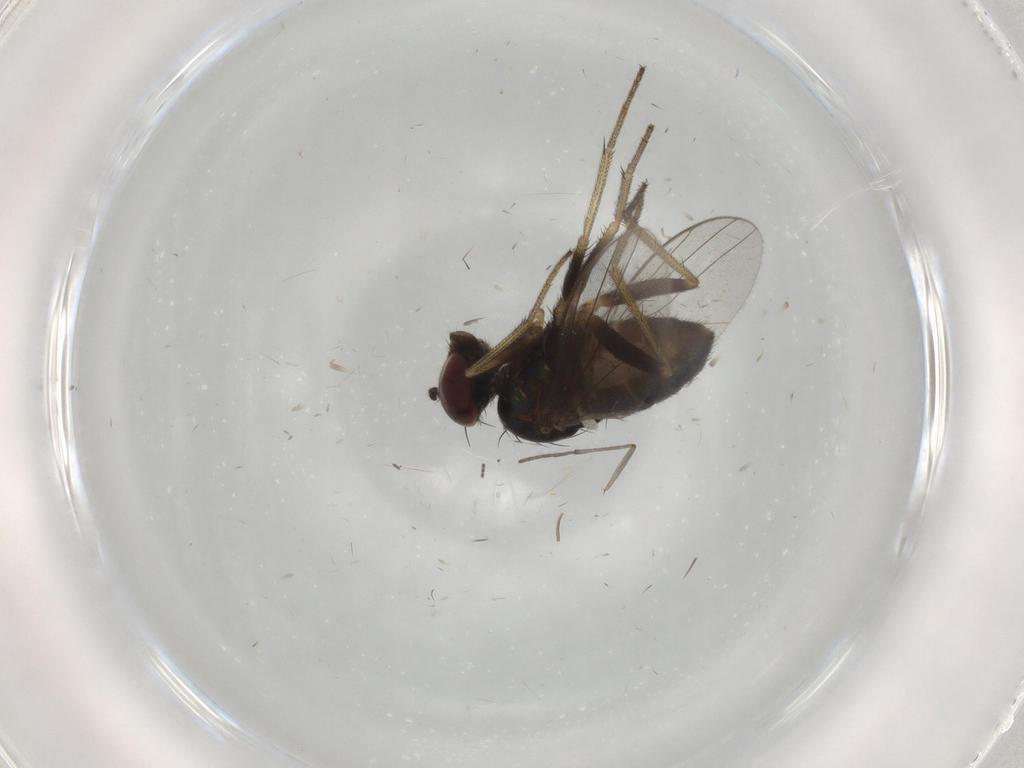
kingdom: Animalia
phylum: Arthropoda
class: Insecta
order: Diptera
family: Dolichopodidae
